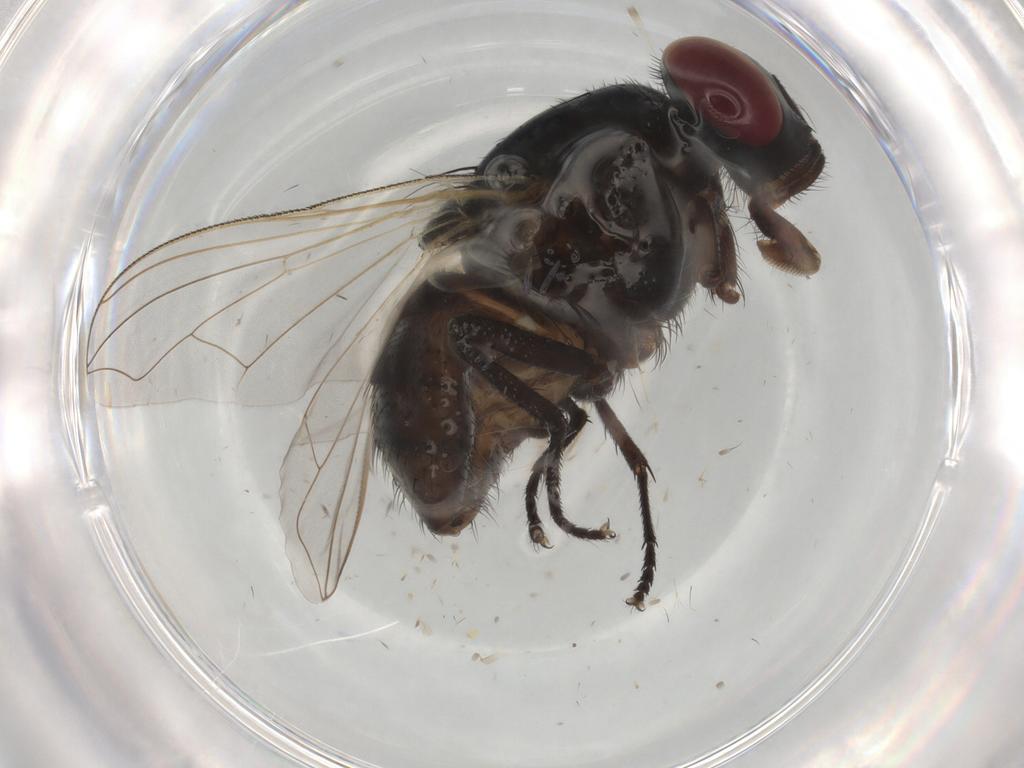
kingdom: Animalia
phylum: Arthropoda
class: Insecta
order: Diptera
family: Muscidae
